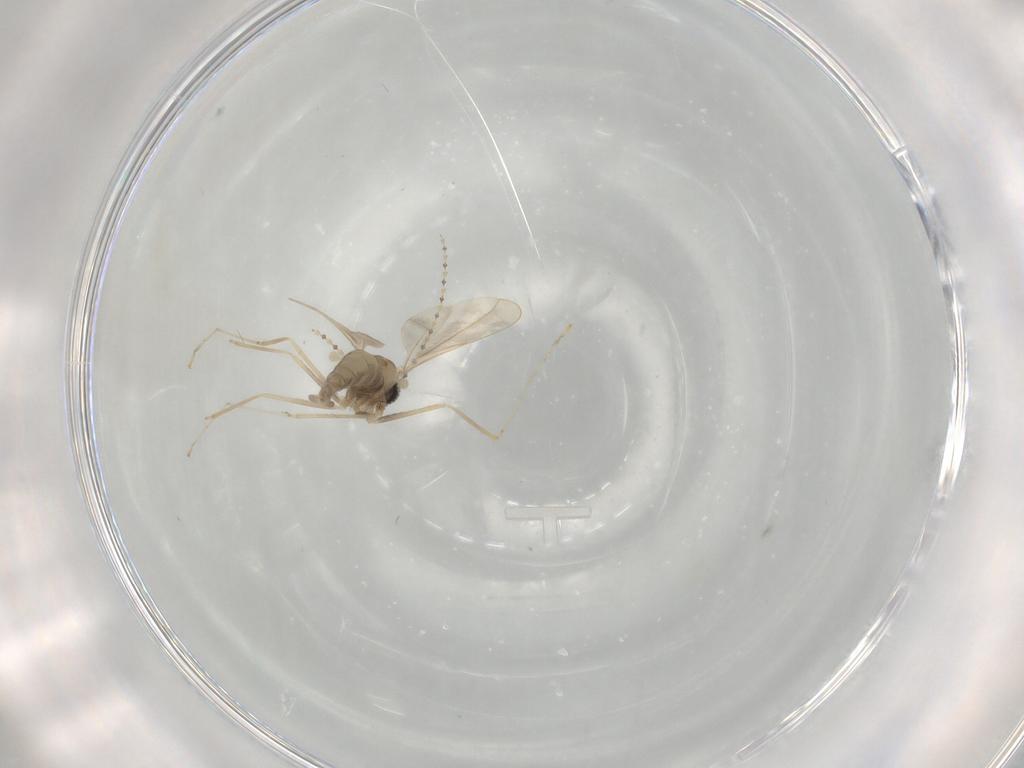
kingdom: Animalia
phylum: Arthropoda
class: Insecta
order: Diptera
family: Cecidomyiidae
